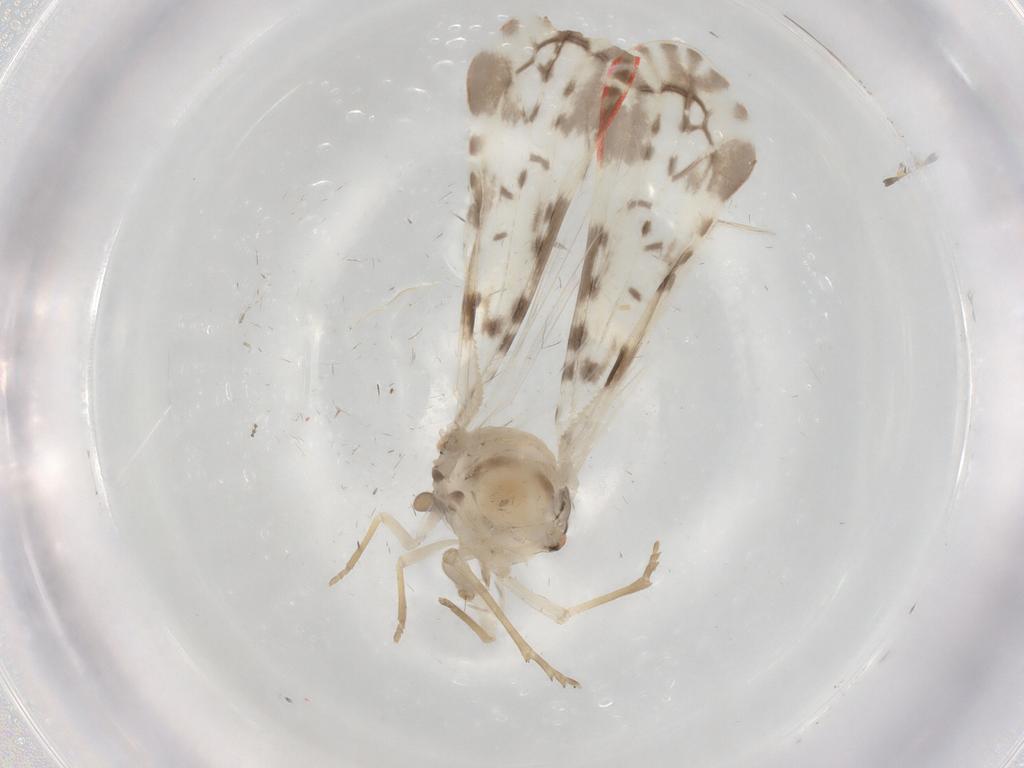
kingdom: Animalia
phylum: Arthropoda
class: Insecta
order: Hemiptera
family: Derbidae
